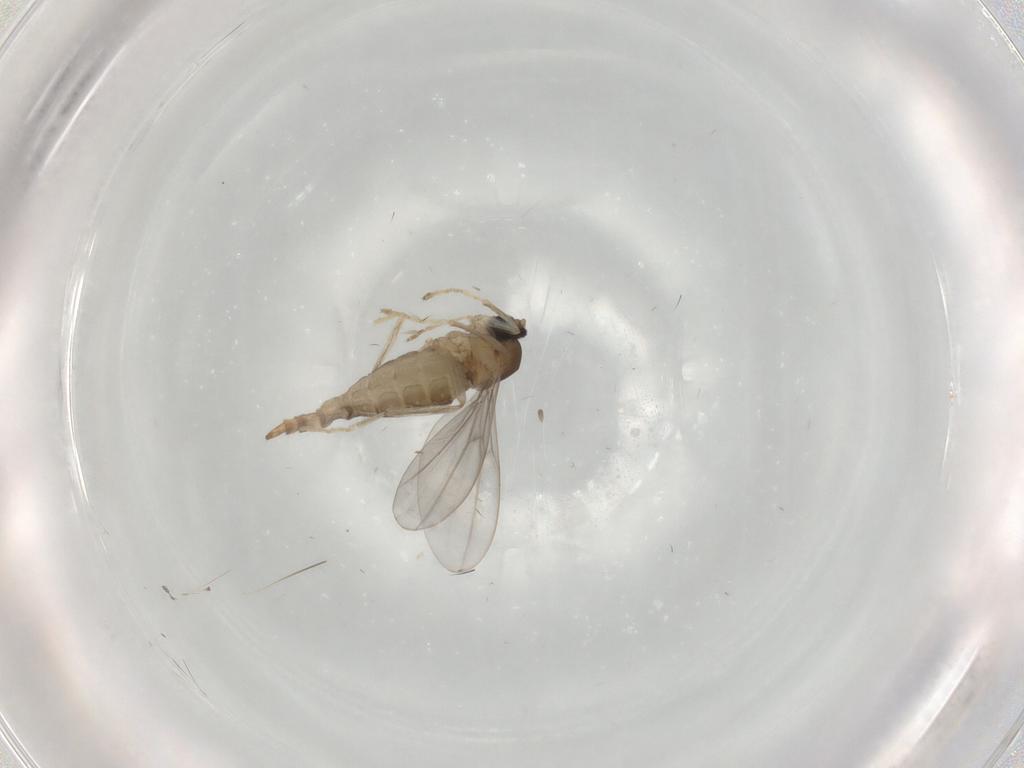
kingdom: Animalia
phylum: Arthropoda
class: Insecta
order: Diptera
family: Cecidomyiidae
